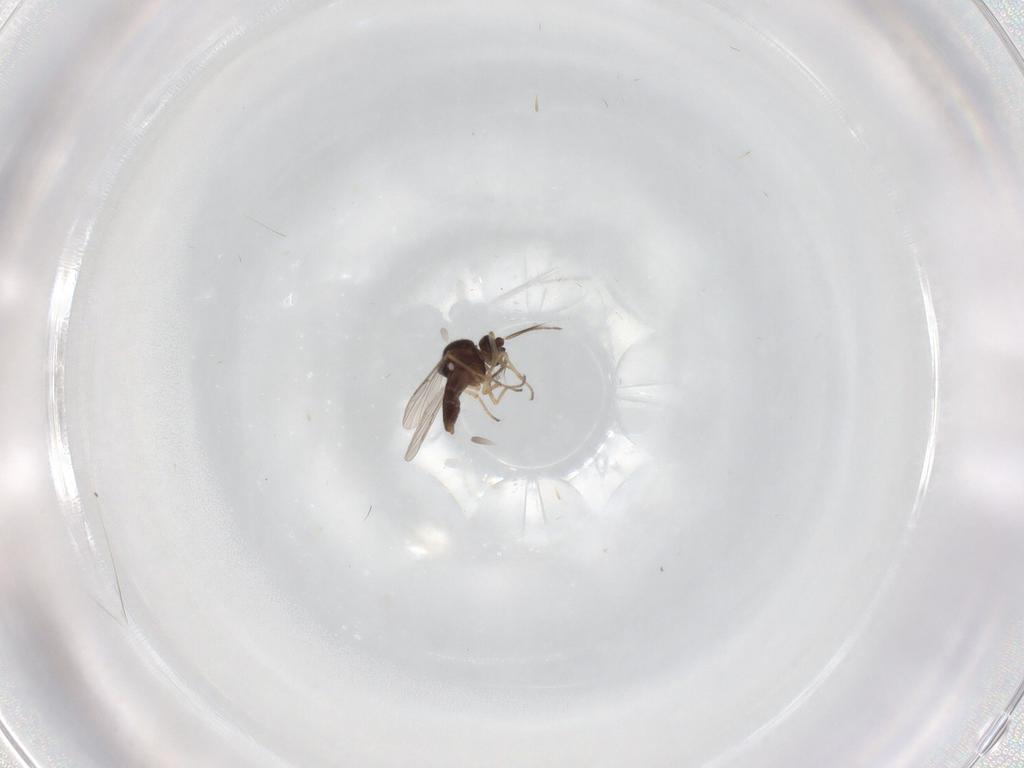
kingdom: Animalia
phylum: Arthropoda
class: Insecta
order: Diptera
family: Ceratopogonidae
